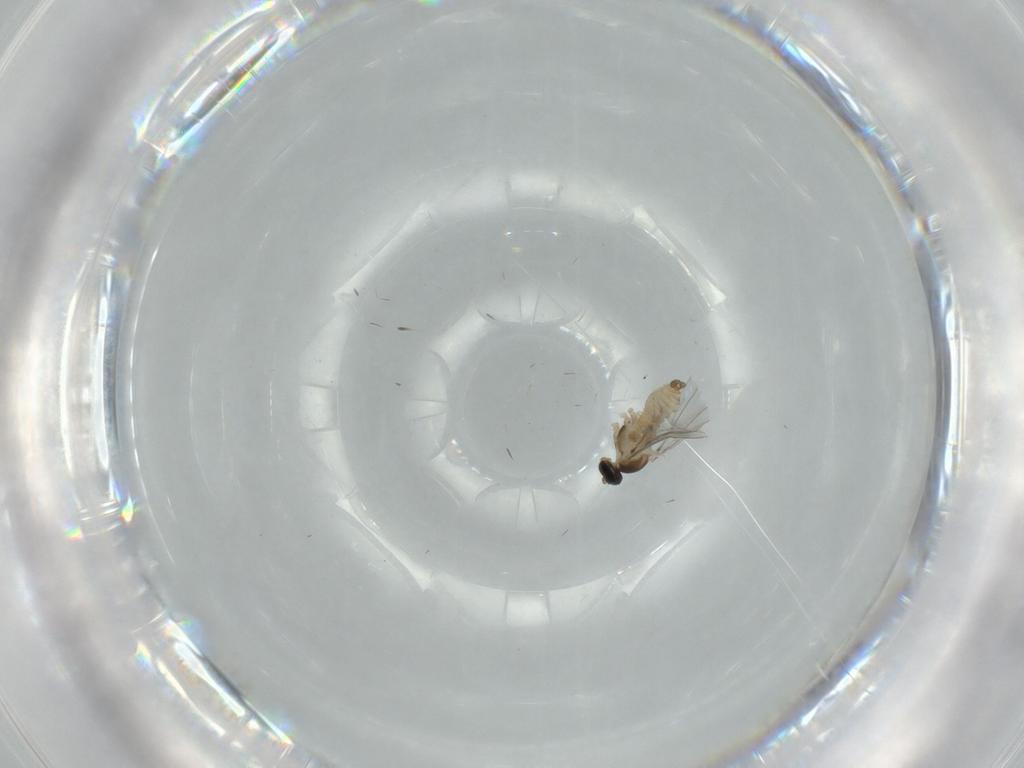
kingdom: Animalia
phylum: Arthropoda
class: Insecta
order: Diptera
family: Cecidomyiidae
